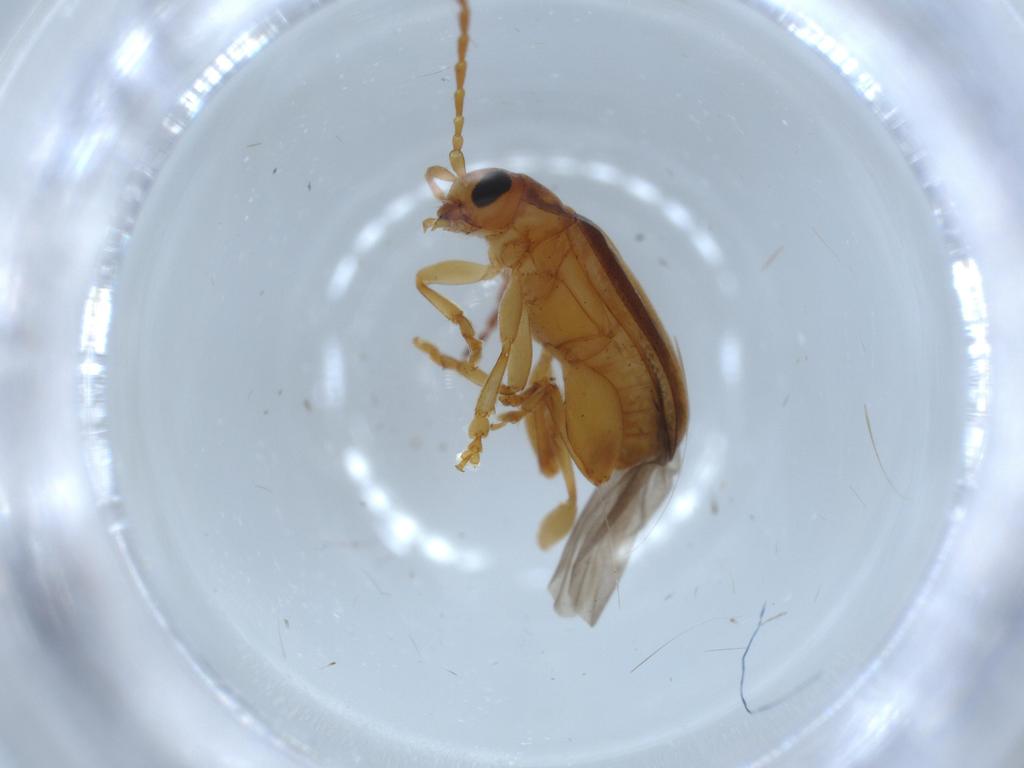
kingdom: Animalia
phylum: Arthropoda
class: Insecta
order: Coleoptera
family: Chrysomelidae
